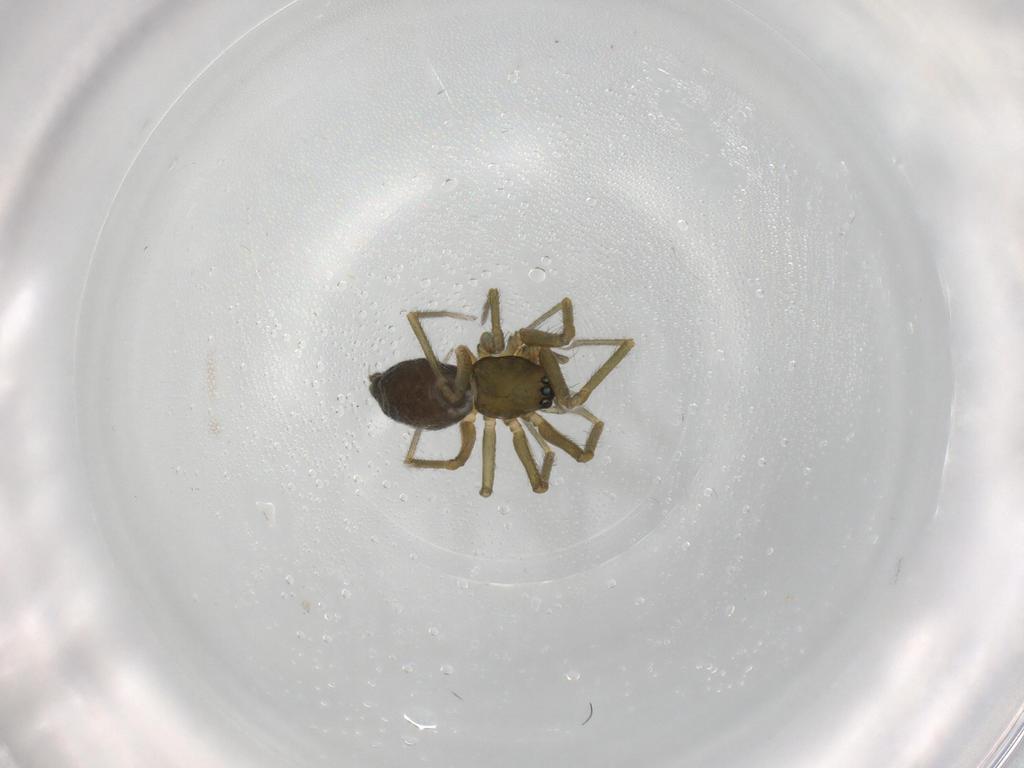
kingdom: Animalia
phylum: Arthropoda
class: Arachnida
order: Araneae
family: Linyphiidae
